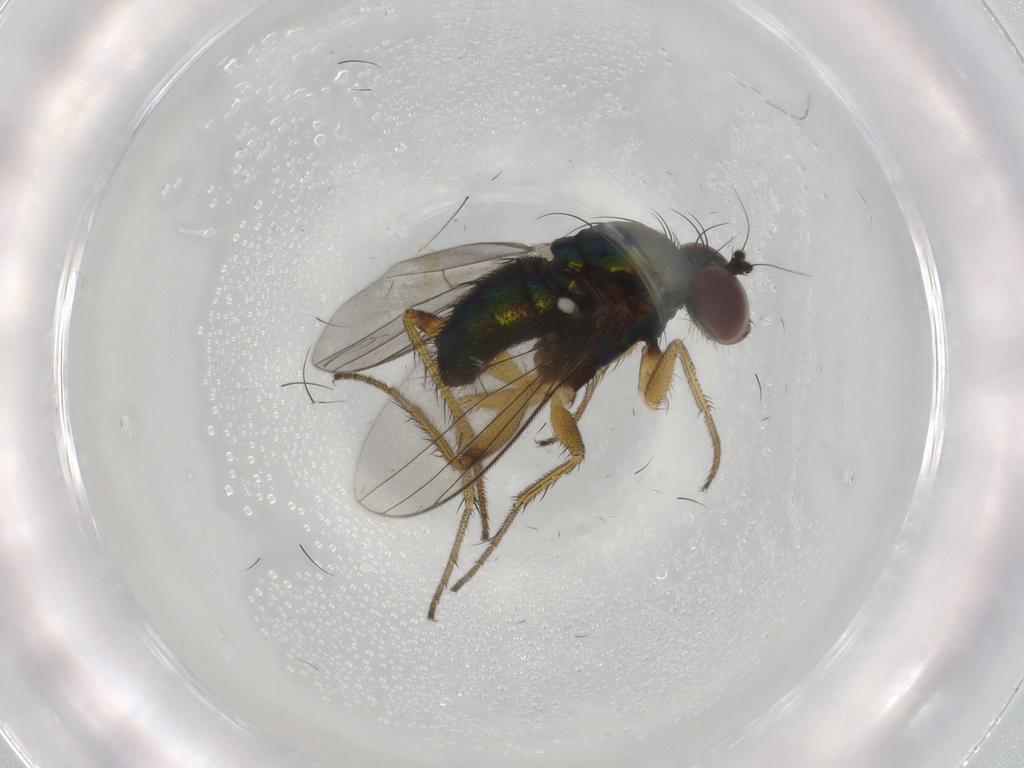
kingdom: Animalia
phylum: Arthropoda
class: Insecta
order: Diptera
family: Dolichopodidae
